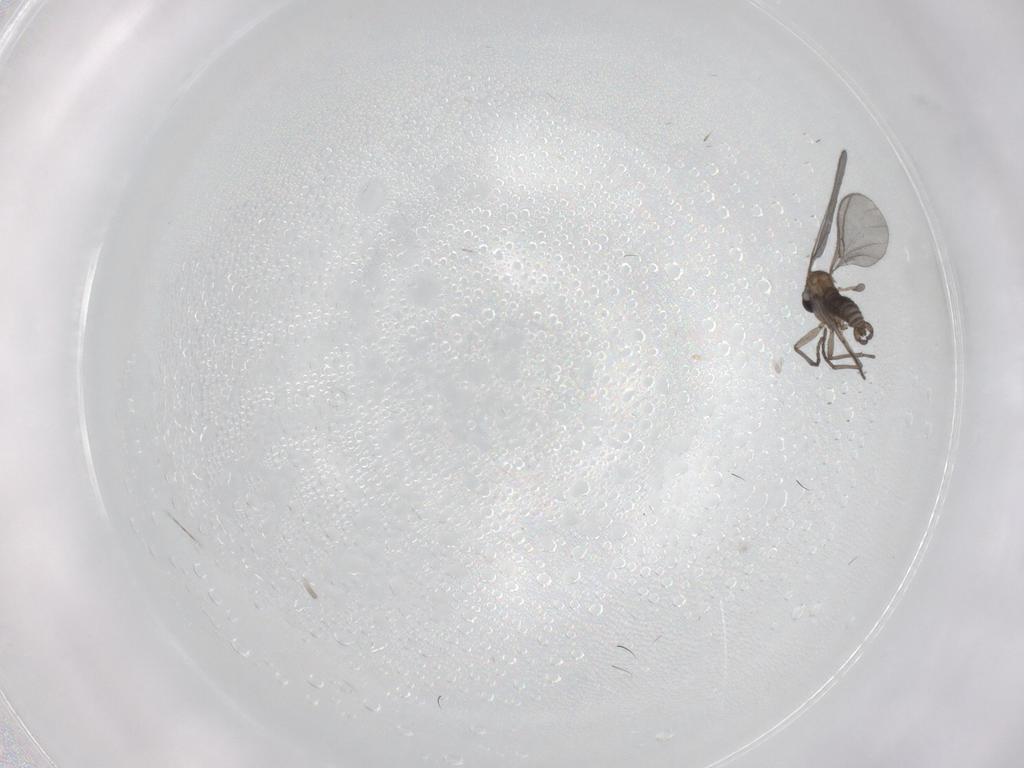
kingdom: Animalia
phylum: Arthropoda
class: Insecta
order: Diptera
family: Sciaridae
